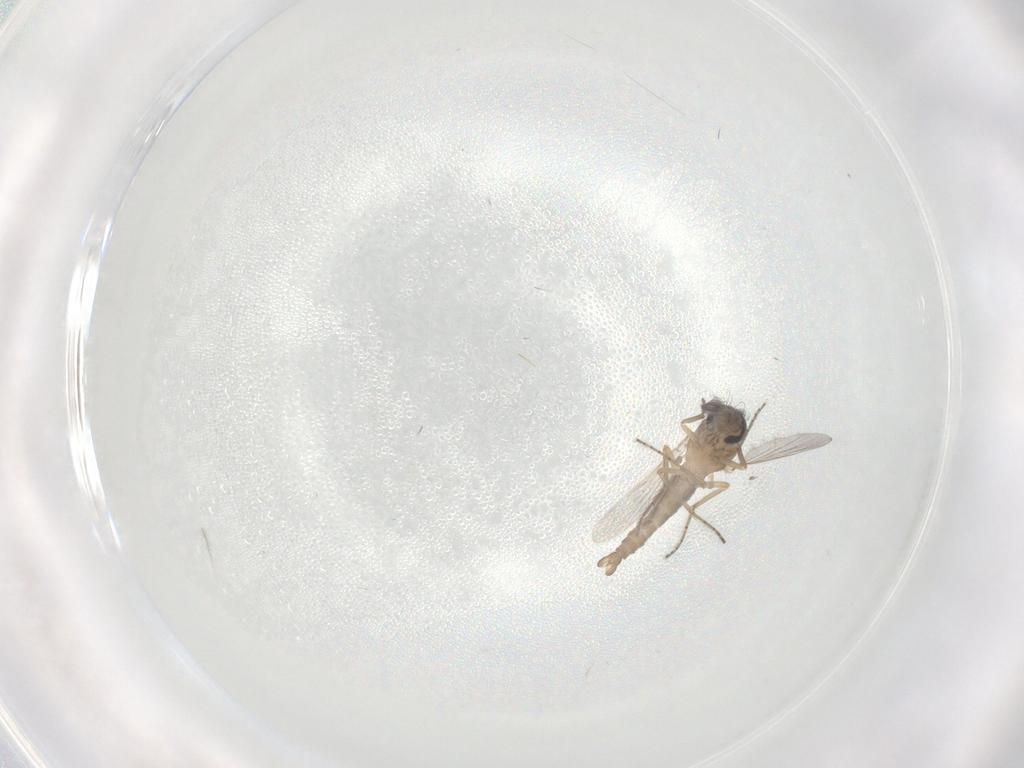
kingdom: Animalia
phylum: Arthropoda
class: Insecta
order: Diptera
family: Ceratopogonidae
